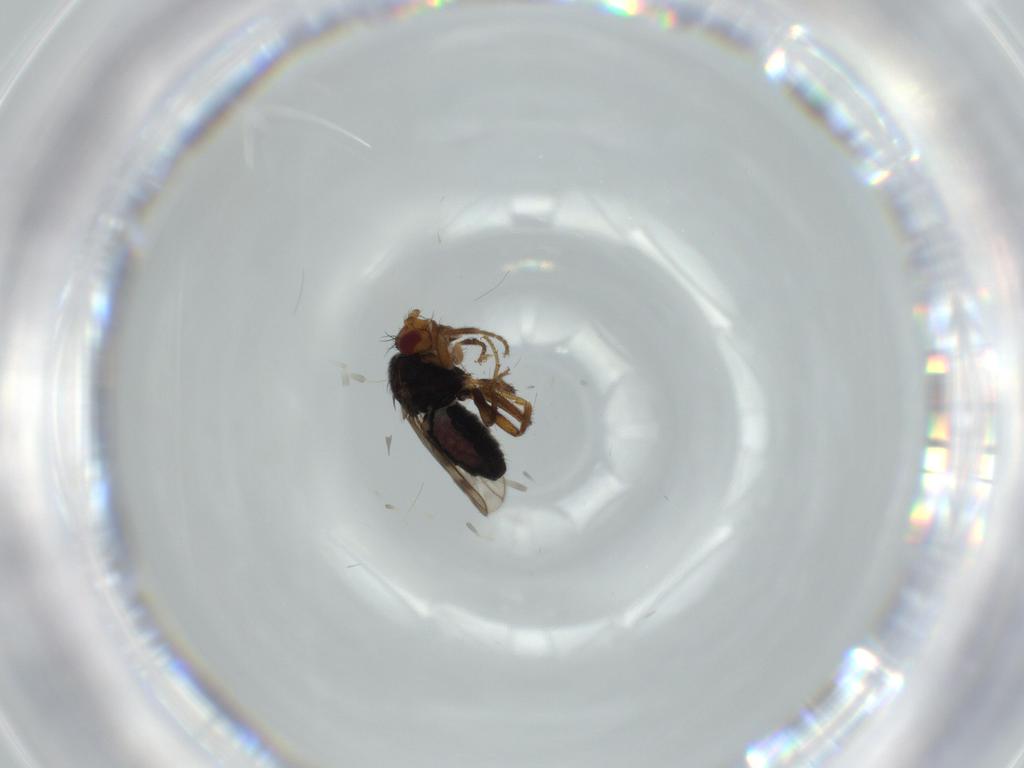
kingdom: Animalia
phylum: Arthropoda
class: Insecta
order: Diptera
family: Sphaeroceridae
